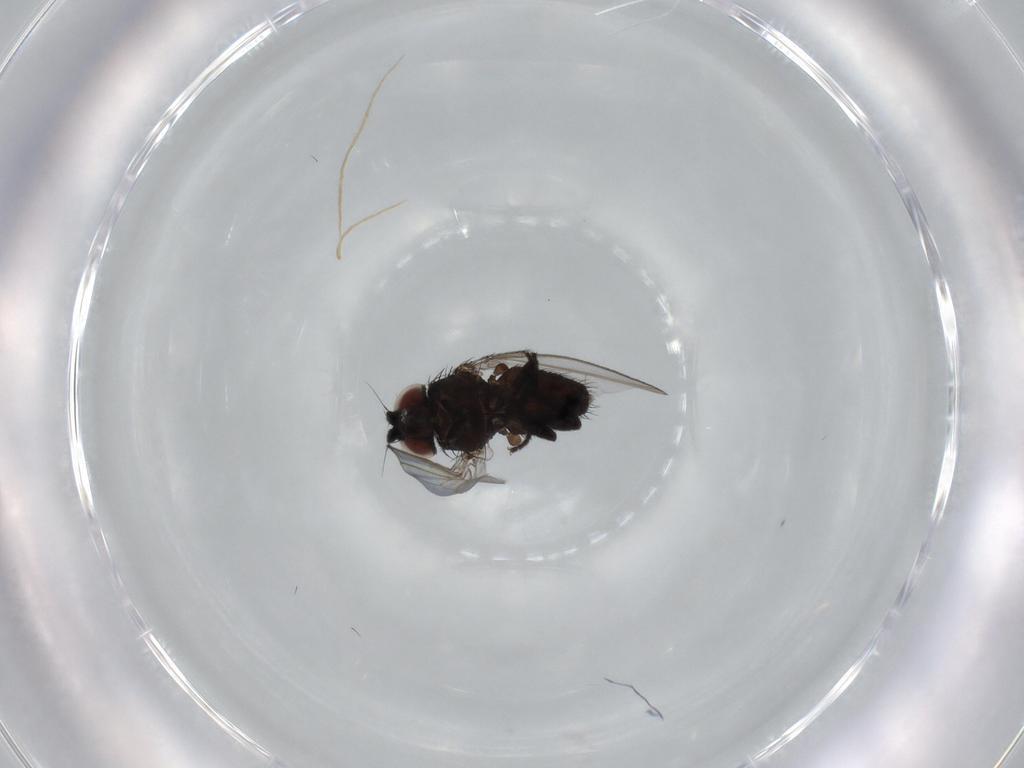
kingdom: Animalia
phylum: Arthropoda
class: Insecta
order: Diptera
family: Milichiidae
